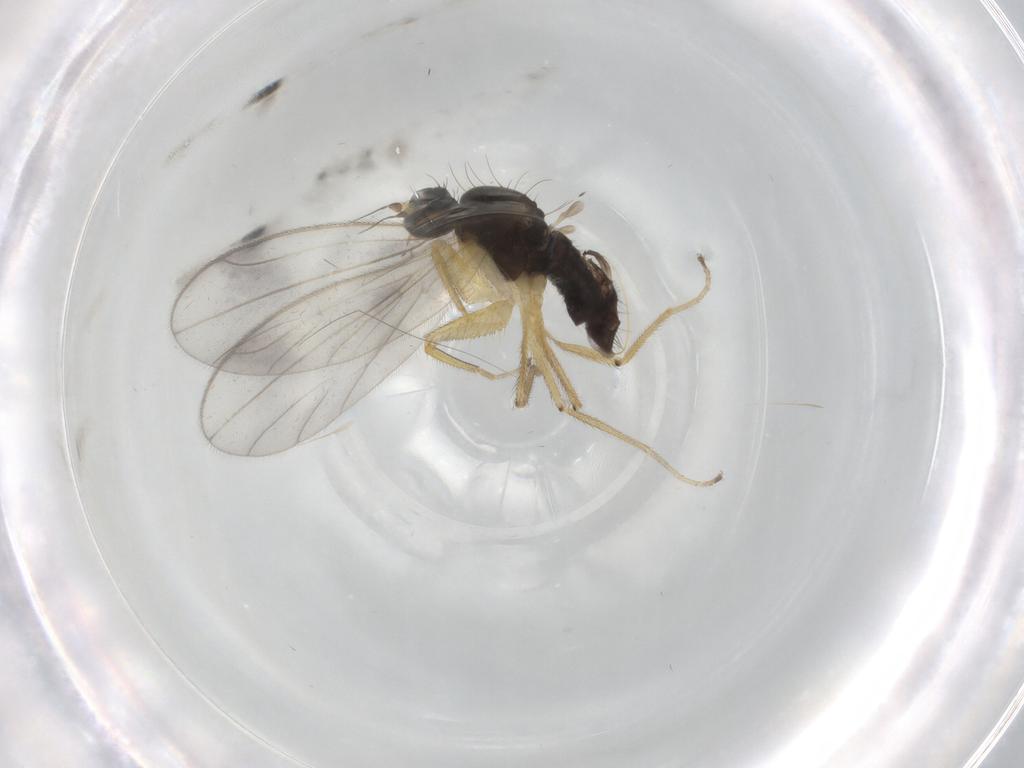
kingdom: Animalia
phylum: Arthropoda
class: Insecta
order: Diptera
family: Chironomidae
